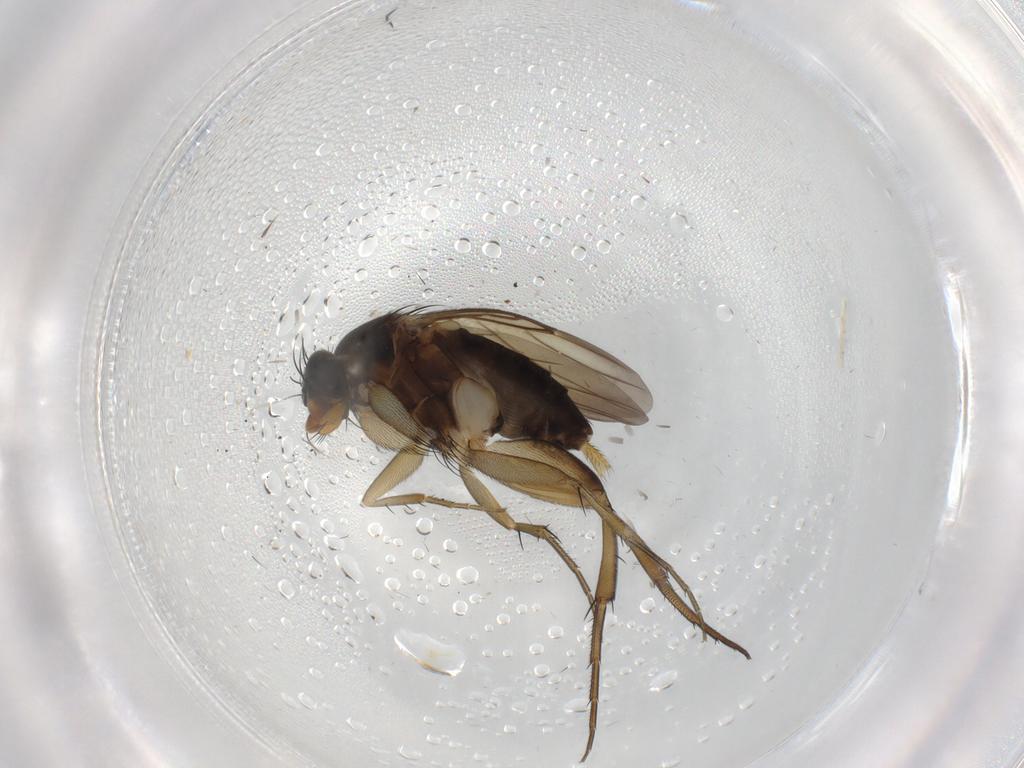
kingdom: Animalia
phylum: Arthropoda
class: Insecta
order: Diptera
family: Phoridae
